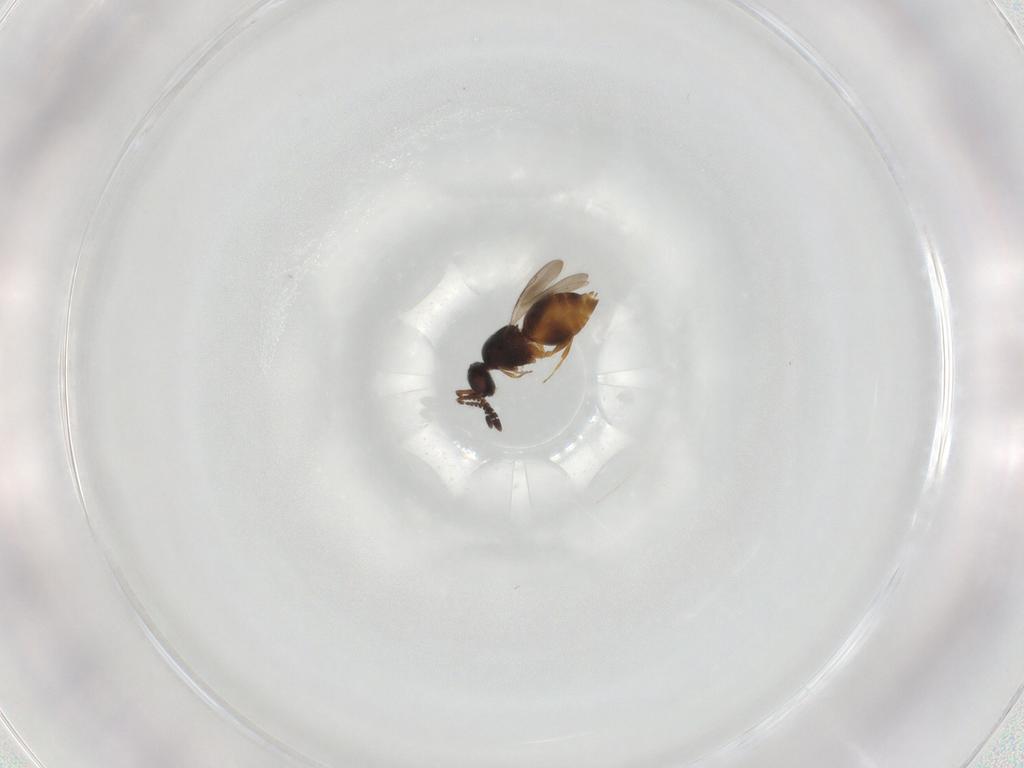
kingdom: Animalia
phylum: Arthropoda
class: Insecta
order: Hymenoptera
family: Ceraphronidae
